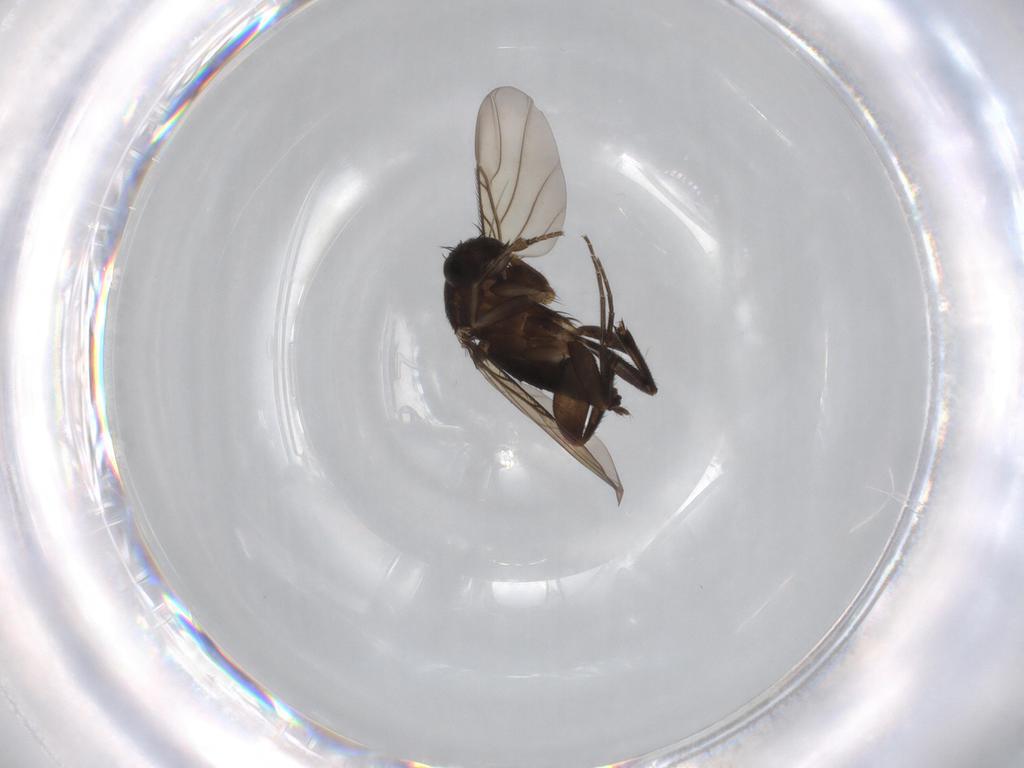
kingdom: Animalia
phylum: Arthropoda
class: Insecta
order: Diptera
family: Phoridae
